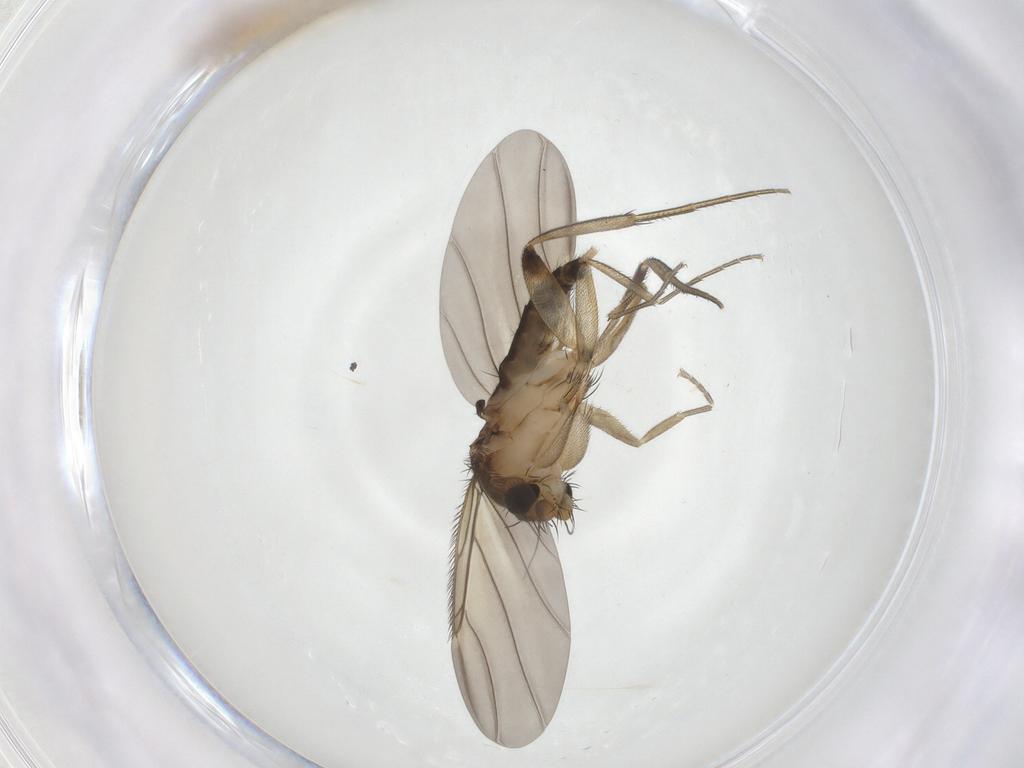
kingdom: Animalia
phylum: Arthropoda
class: Insecta
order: Diptera
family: Phoridae
